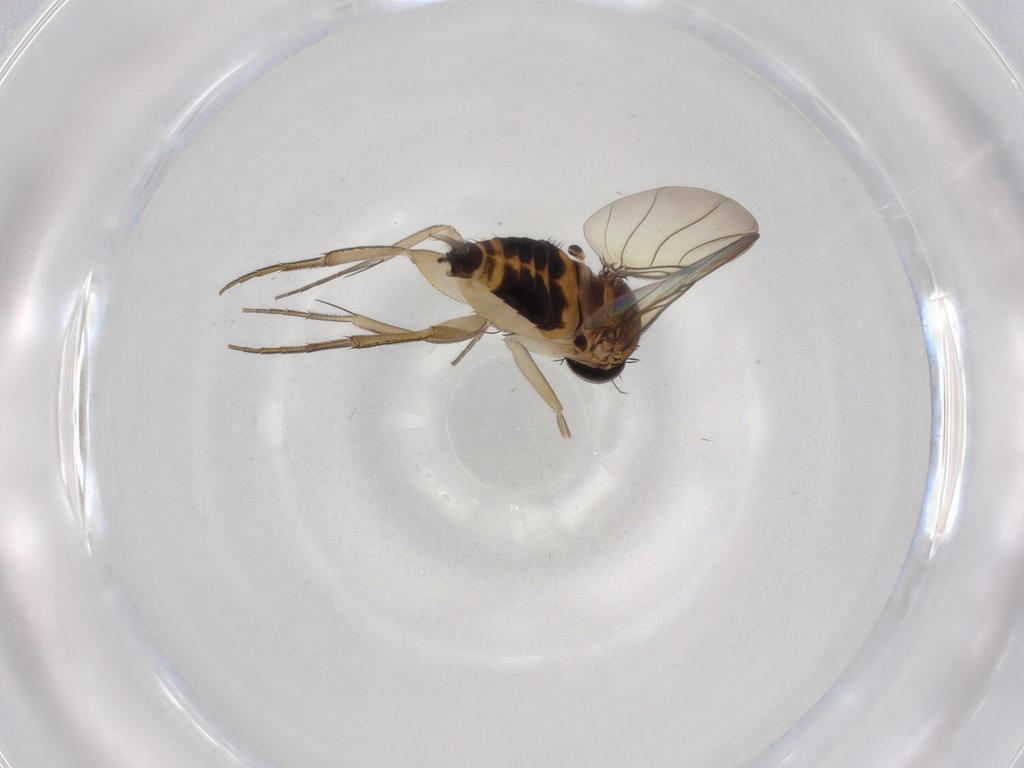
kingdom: Animalia
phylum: Arthropoda
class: Insecta
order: Diptera
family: Phoridae
